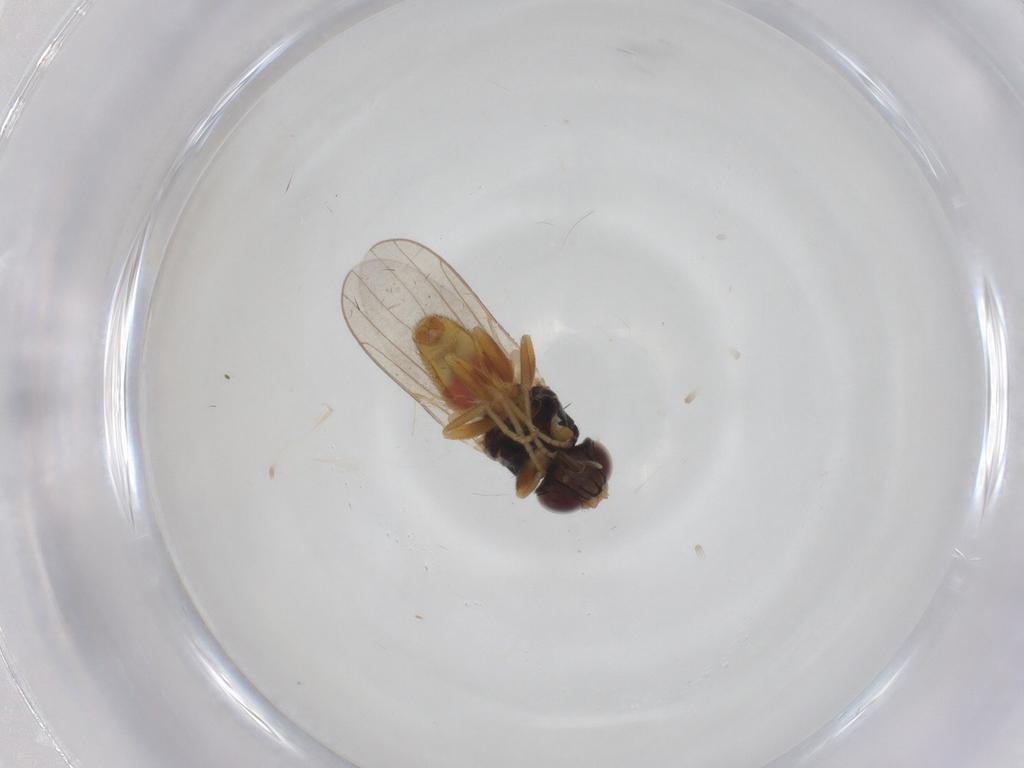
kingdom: Animalia
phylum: Arthropoda
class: Insecta
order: Diptera
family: Chloropidae
